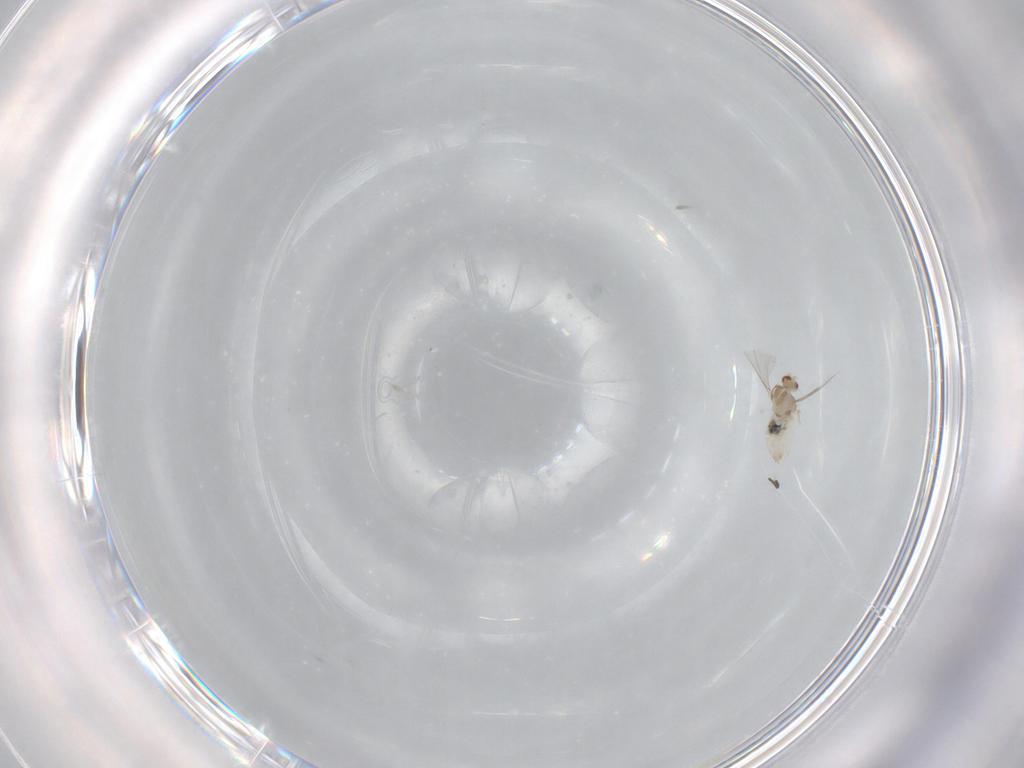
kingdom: Animalia
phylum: Arthropoda
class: Insecta
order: Diptera
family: Cecidomyiidae
